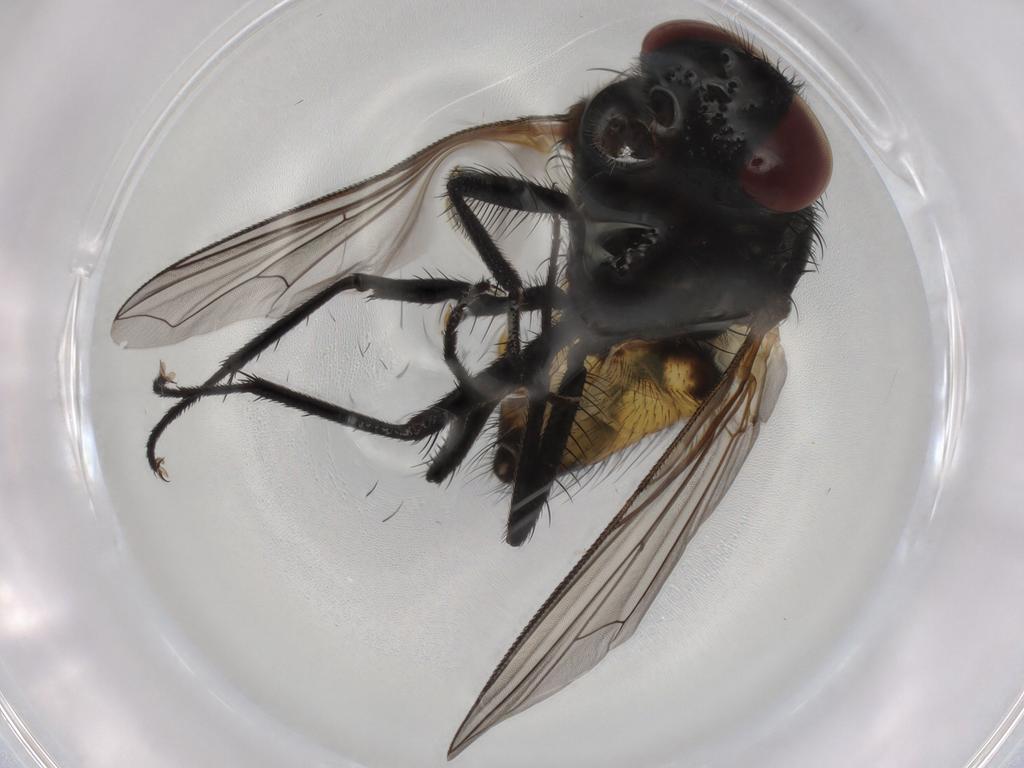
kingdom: Animalia
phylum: Arthropoda
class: Insecta
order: Diptera
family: Muscidae
